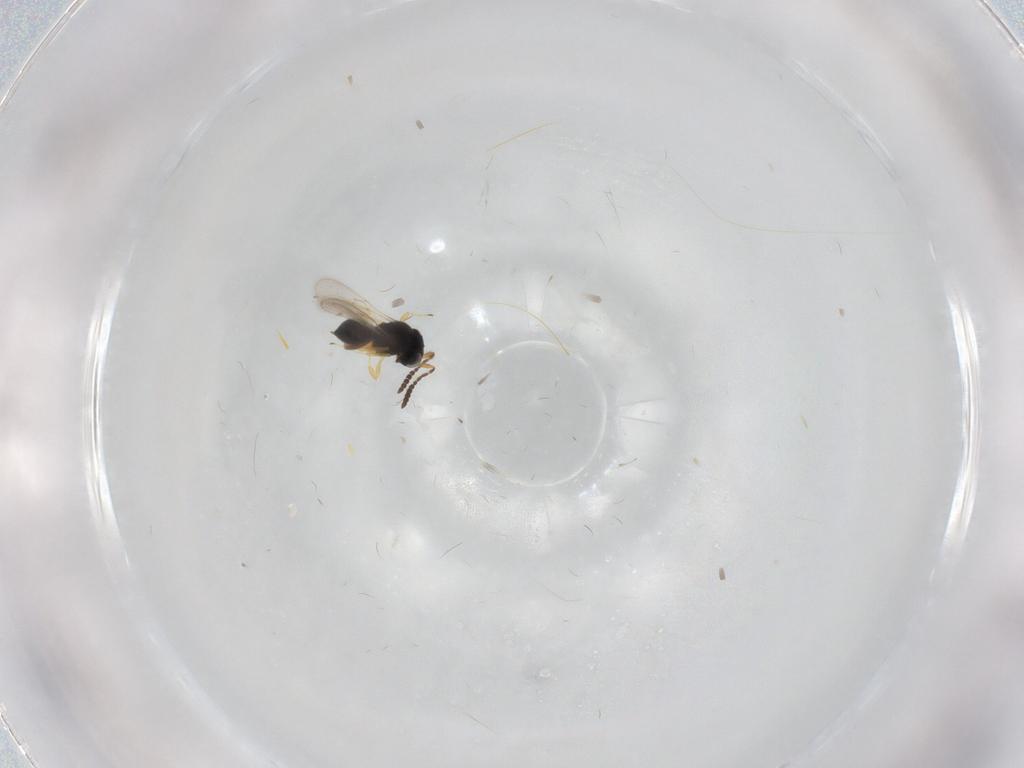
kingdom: Animalia
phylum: Arthropoda
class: Insecta
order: Hymenoptera
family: Scelionidae
